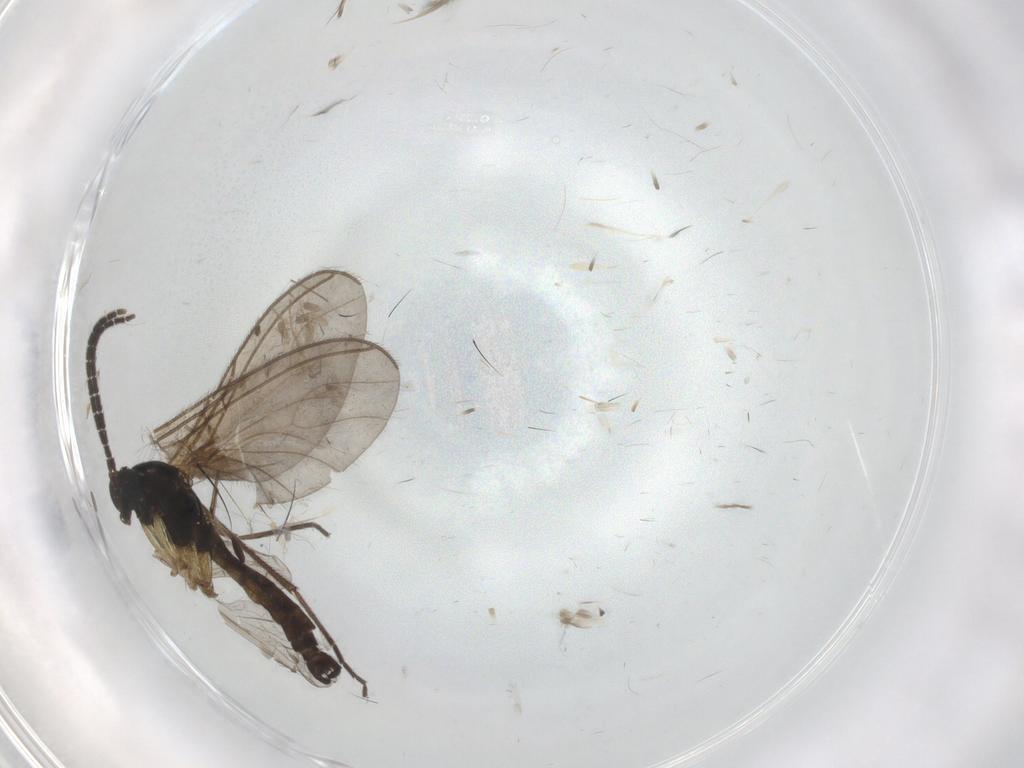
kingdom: Animalia
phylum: Arthropoda
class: Insecta
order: Diptera
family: Sciaridae
